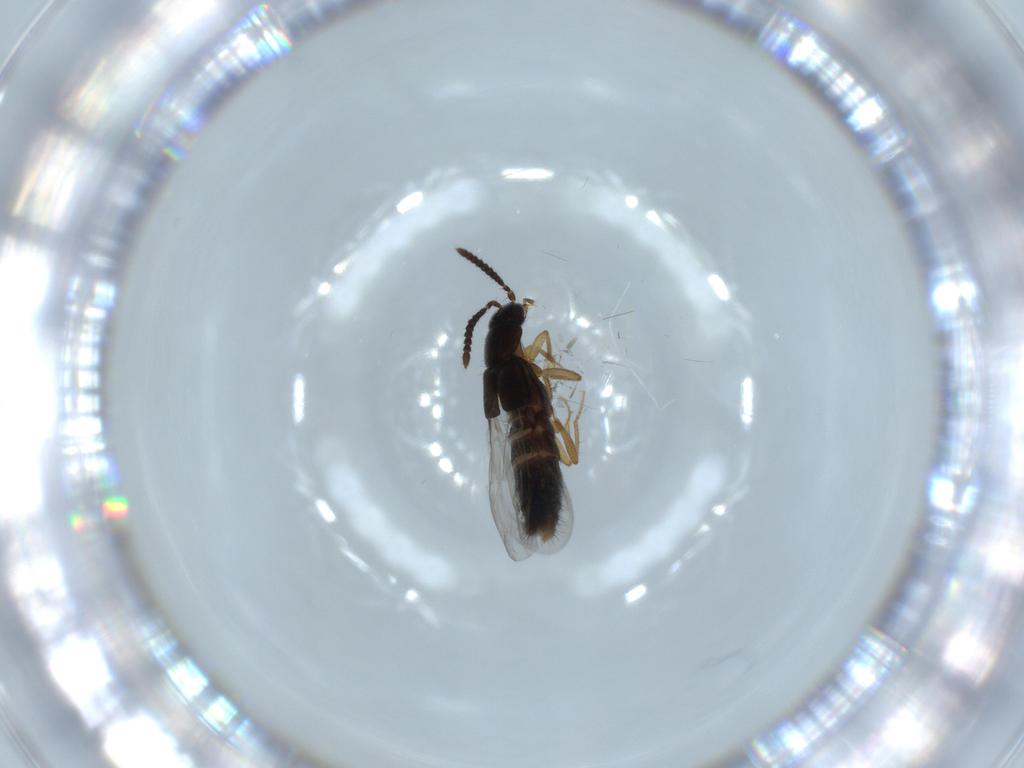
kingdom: Animalia
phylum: Arthropoda
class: Insecta
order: Coleoptera
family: Staphylinidae
